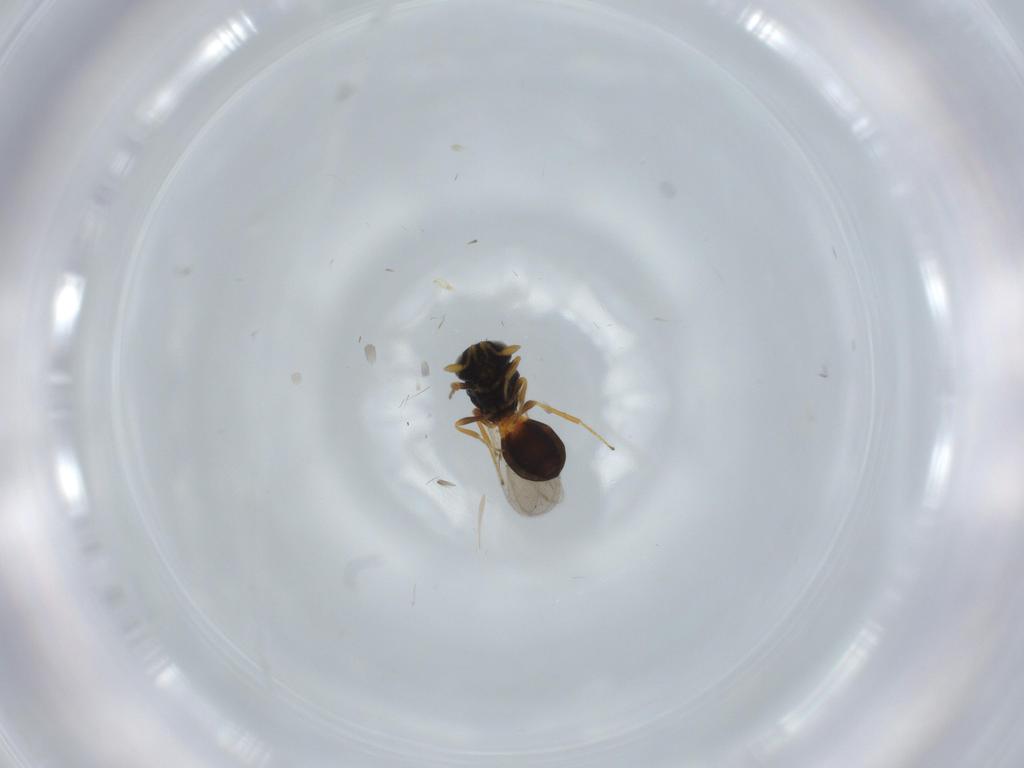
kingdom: Animalia
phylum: Arthropoda
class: Insecta
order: Hymenoptera
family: Scelionidae
